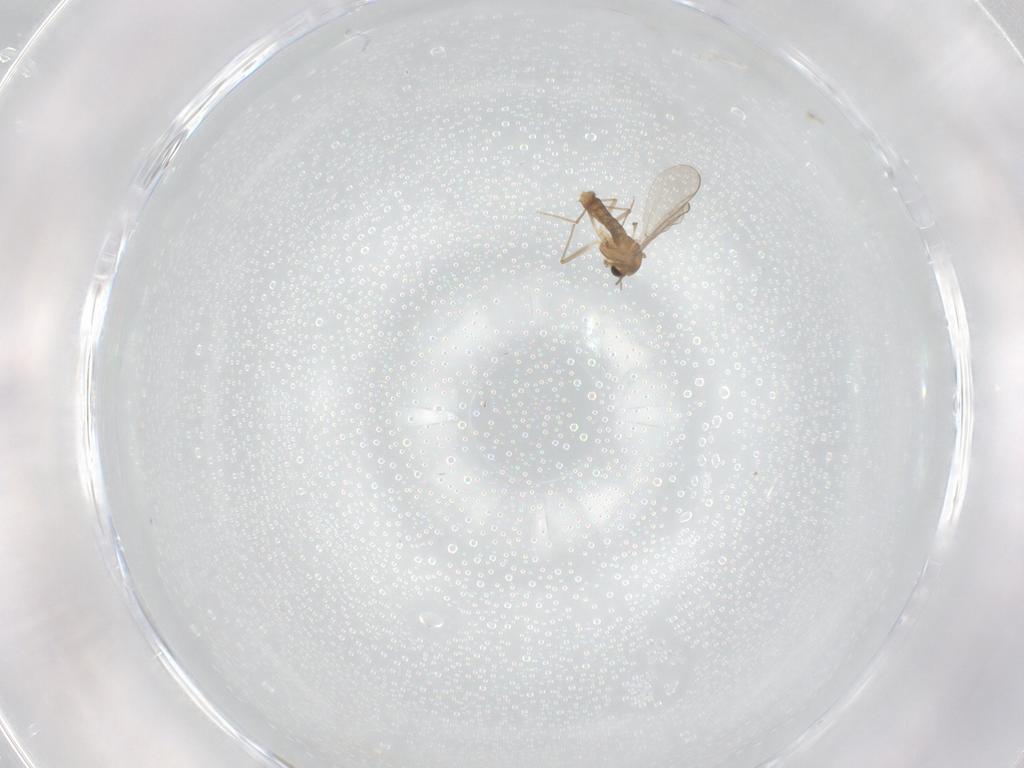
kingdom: Animalia
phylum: Arthropoda
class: Insecta
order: Diptera
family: Chironomidae
